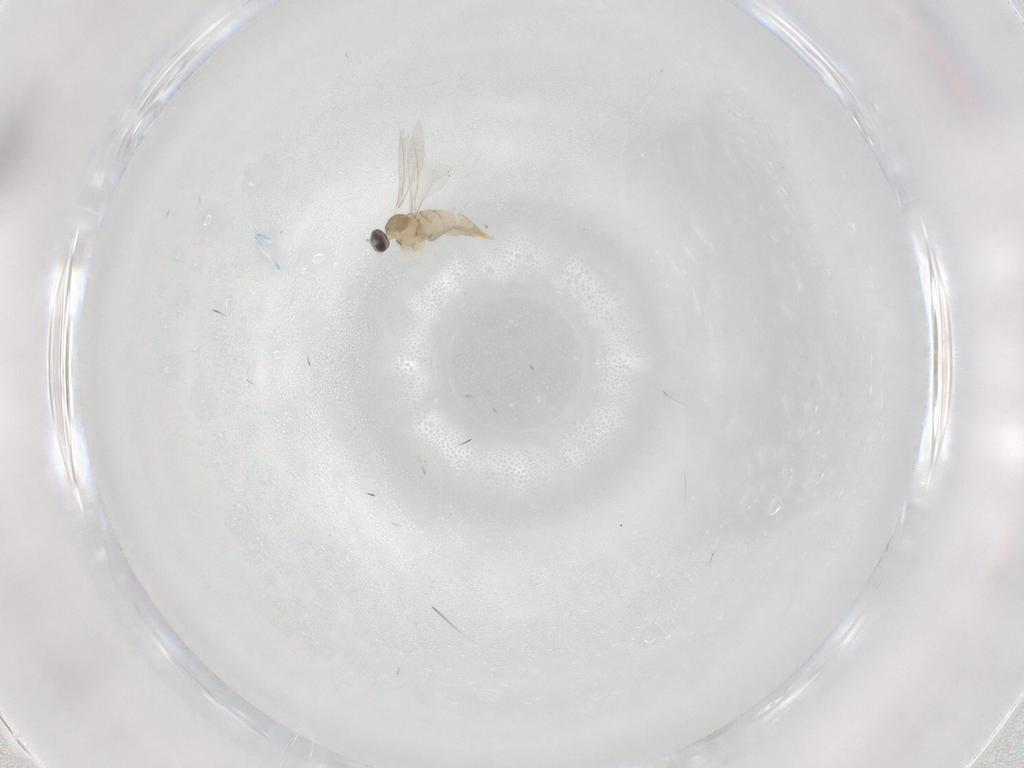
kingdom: Animalia
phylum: Arthropoda
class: Insecta
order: Diptera
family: Cecidomyiidae
